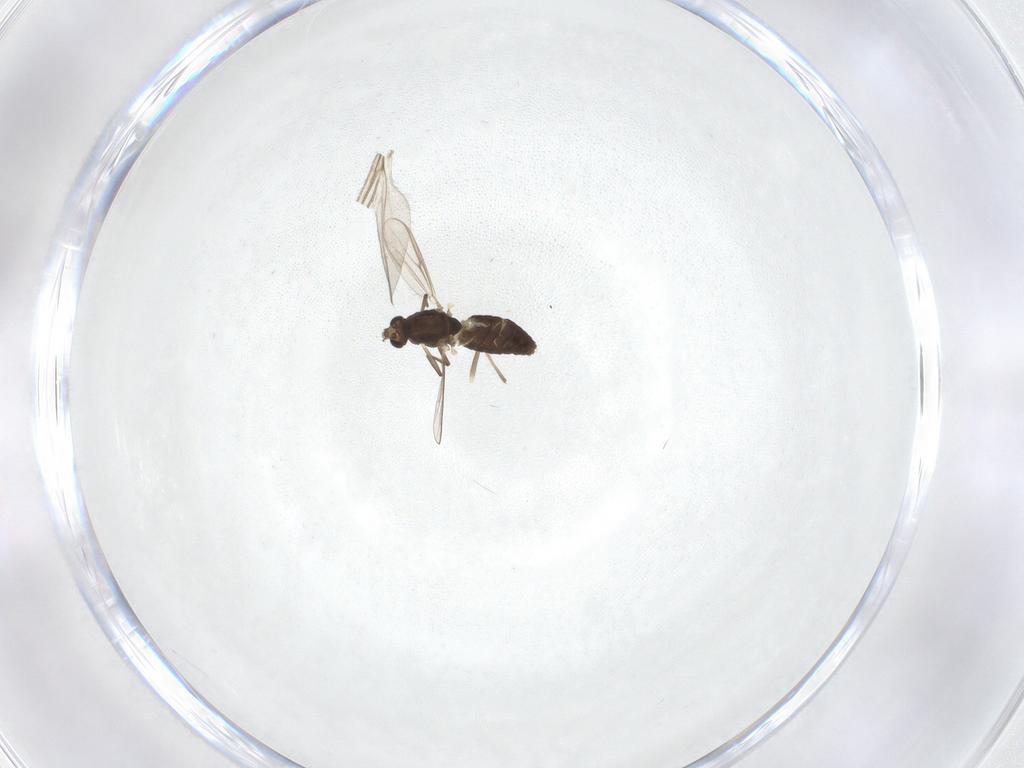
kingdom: Animalia
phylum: Arthropoda
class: Insecta
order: Diptera
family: Chironomidae
